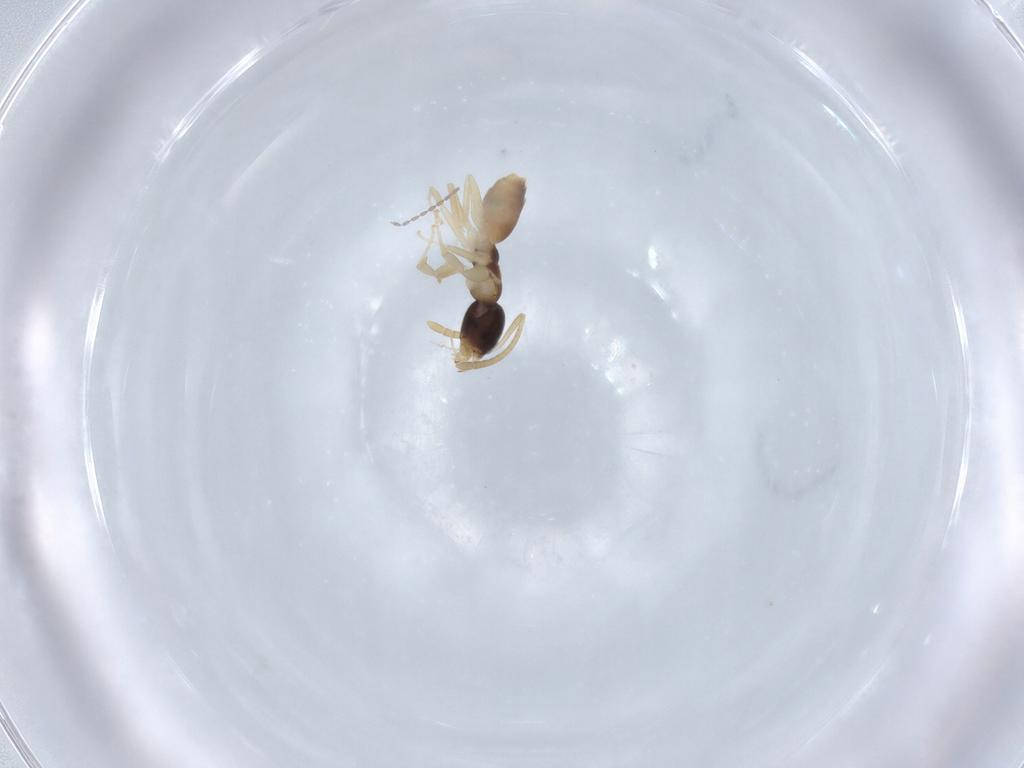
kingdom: Animalia
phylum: Arthropoda
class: Insecta
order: Hymenoptera
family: Formicidae
